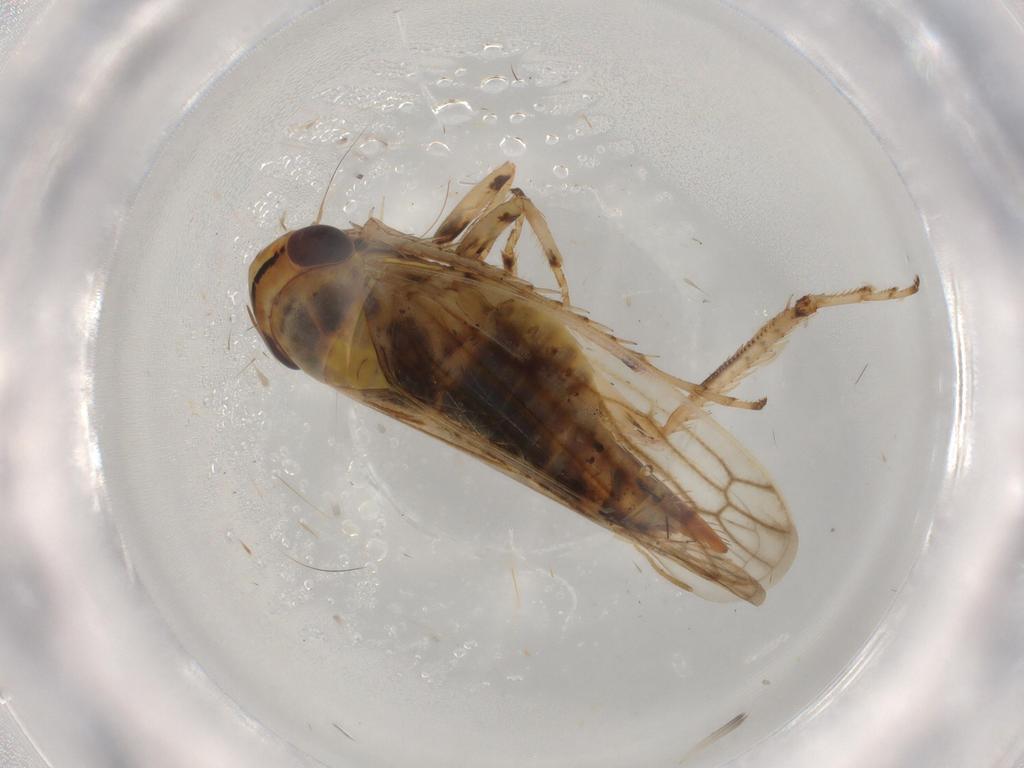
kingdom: Animalia
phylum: Arthropoda
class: Insecta
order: Hemiptera
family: Cicadellidae
